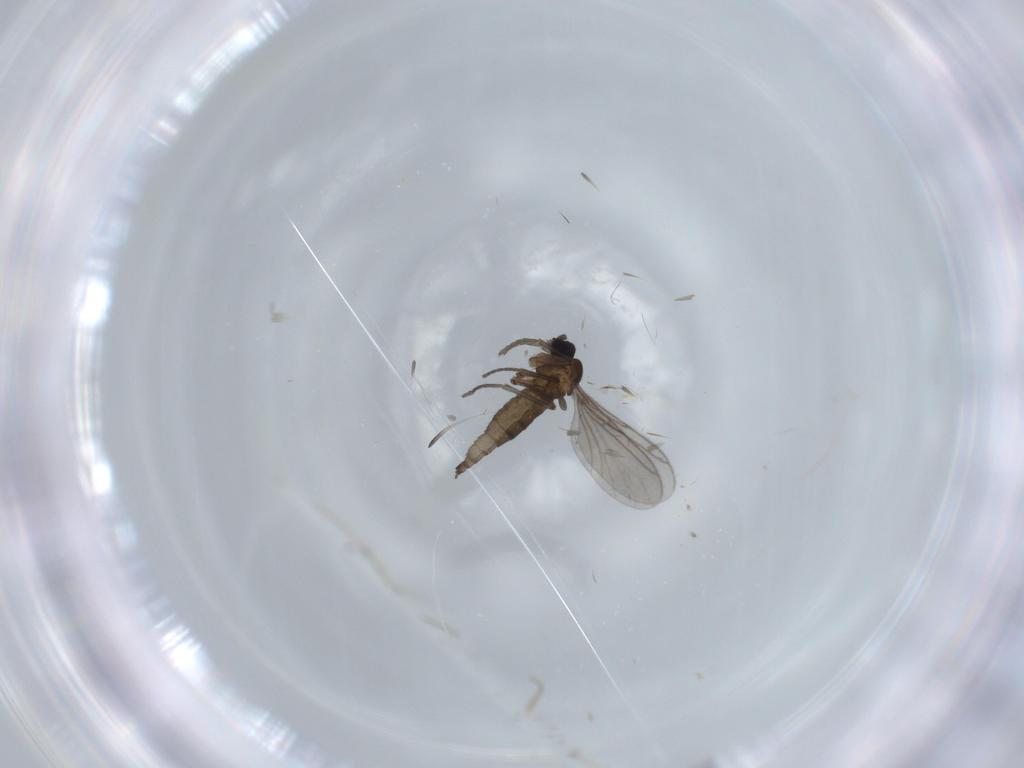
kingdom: Animalia
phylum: Arthropoda
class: Insecta
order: Diptera
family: Phoridae
